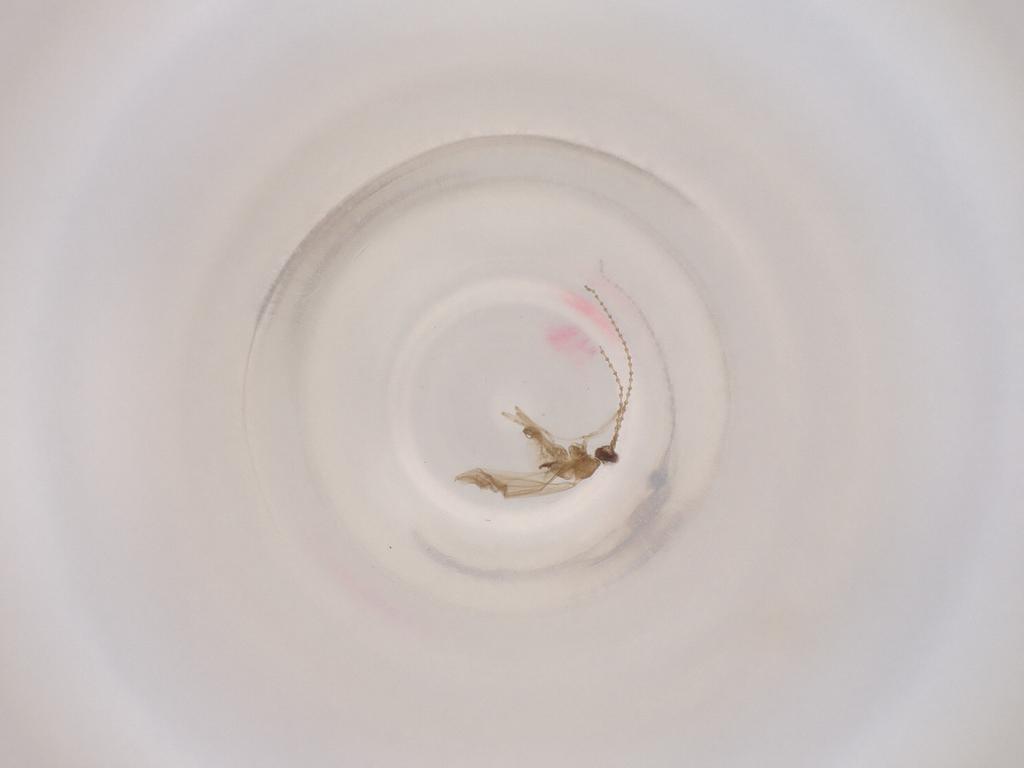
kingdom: Animalia
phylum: Arthropoda
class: Insecta
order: Diptera
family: Cecidomyiidae
